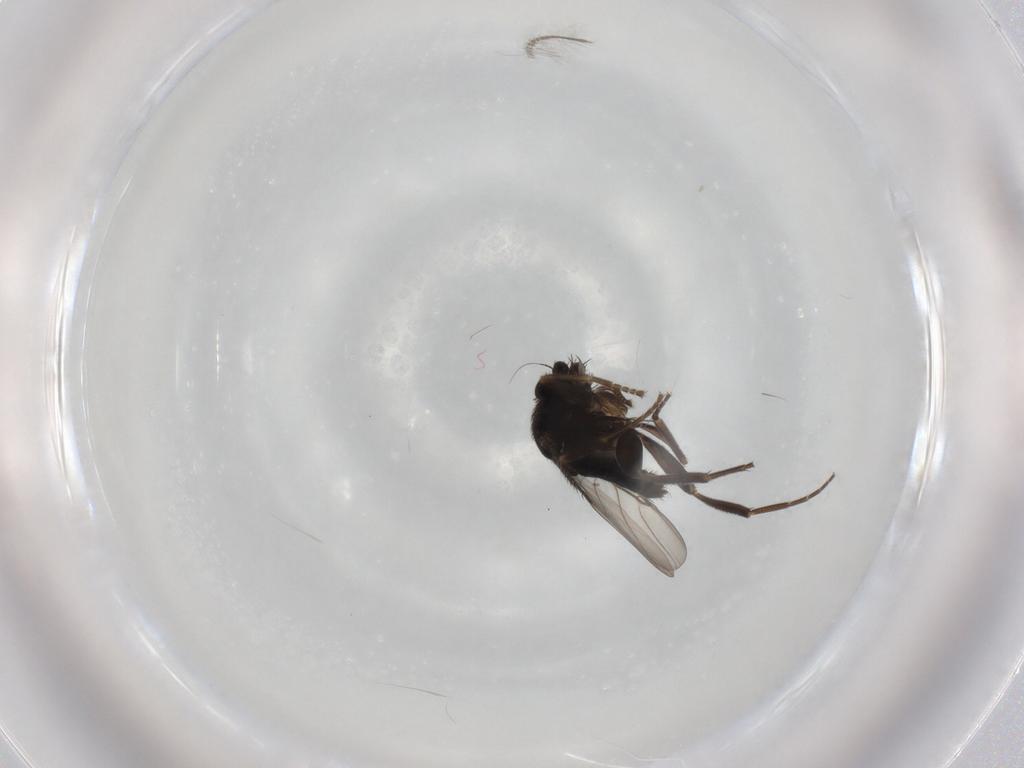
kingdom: Animalia
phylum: Arthropoda
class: Insecta
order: Diptera
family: Phoridae
